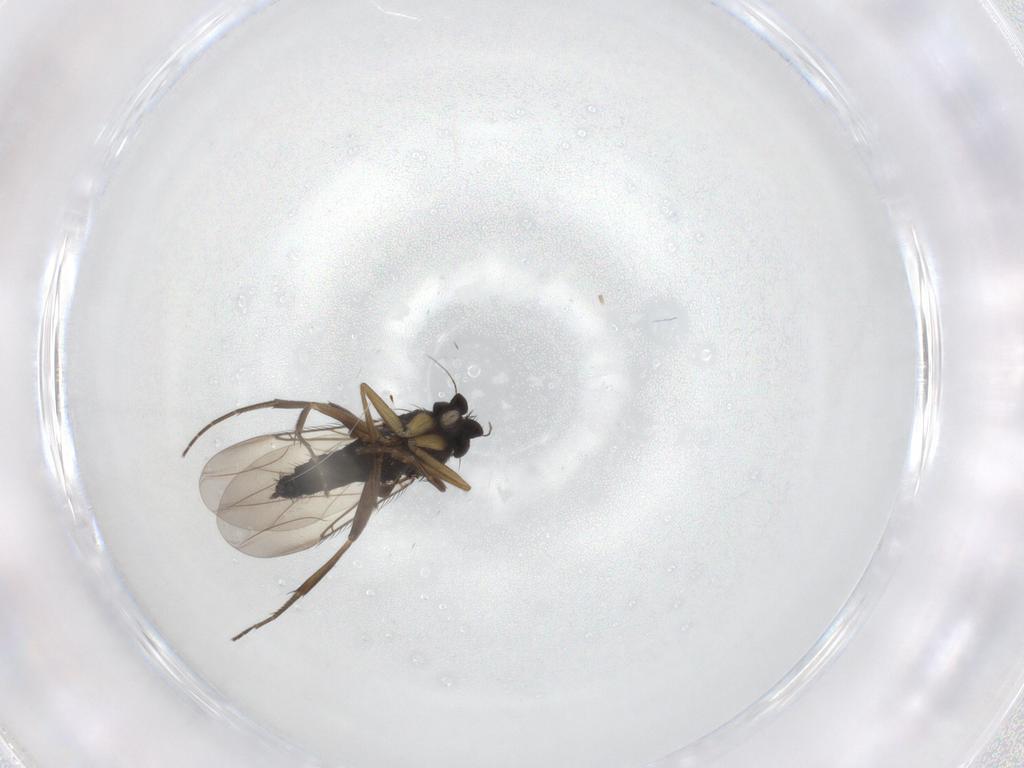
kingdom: Animalia
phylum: Arthropoda
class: Insecta
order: Diptera
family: Phoridae
